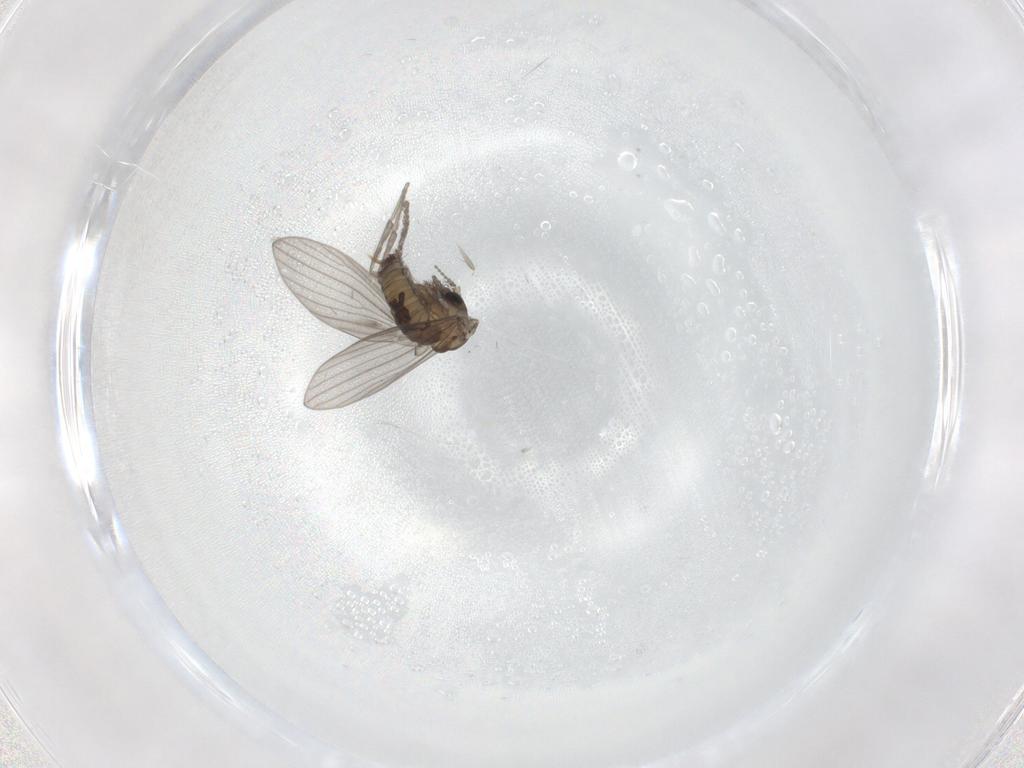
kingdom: Animalia
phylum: Arthropoda
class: Insecta
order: Diptera
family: Psychodidae
